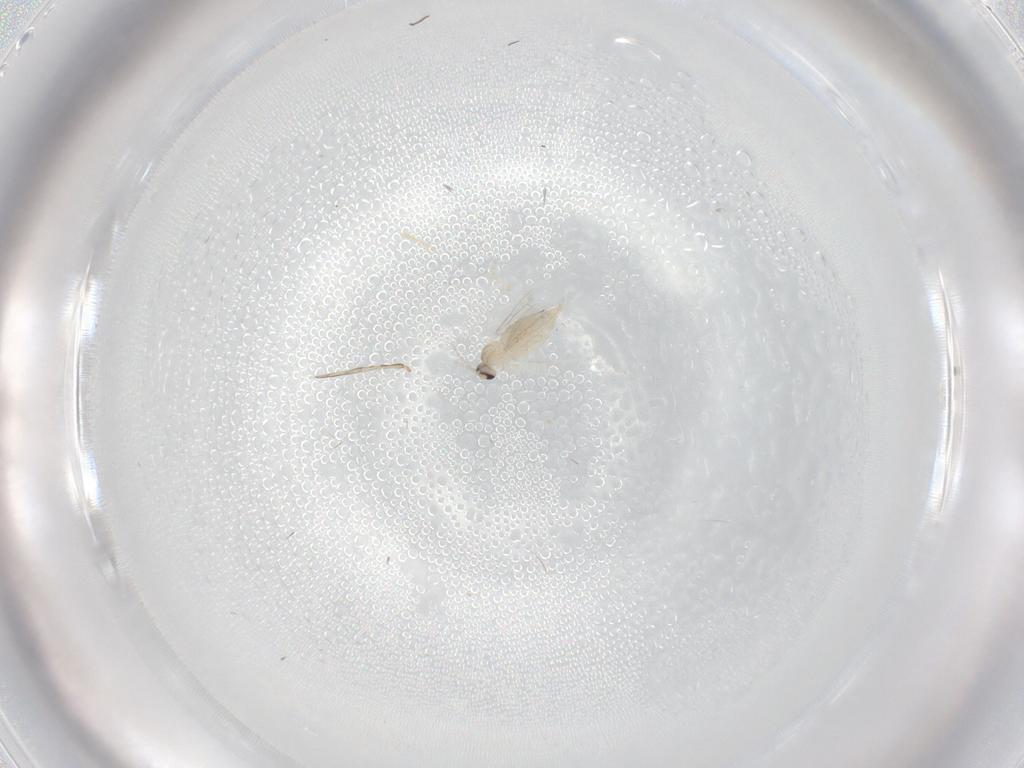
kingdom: Animalia
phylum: Arthropoda
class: Insecta
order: Diptera
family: Cecidomyiidae
